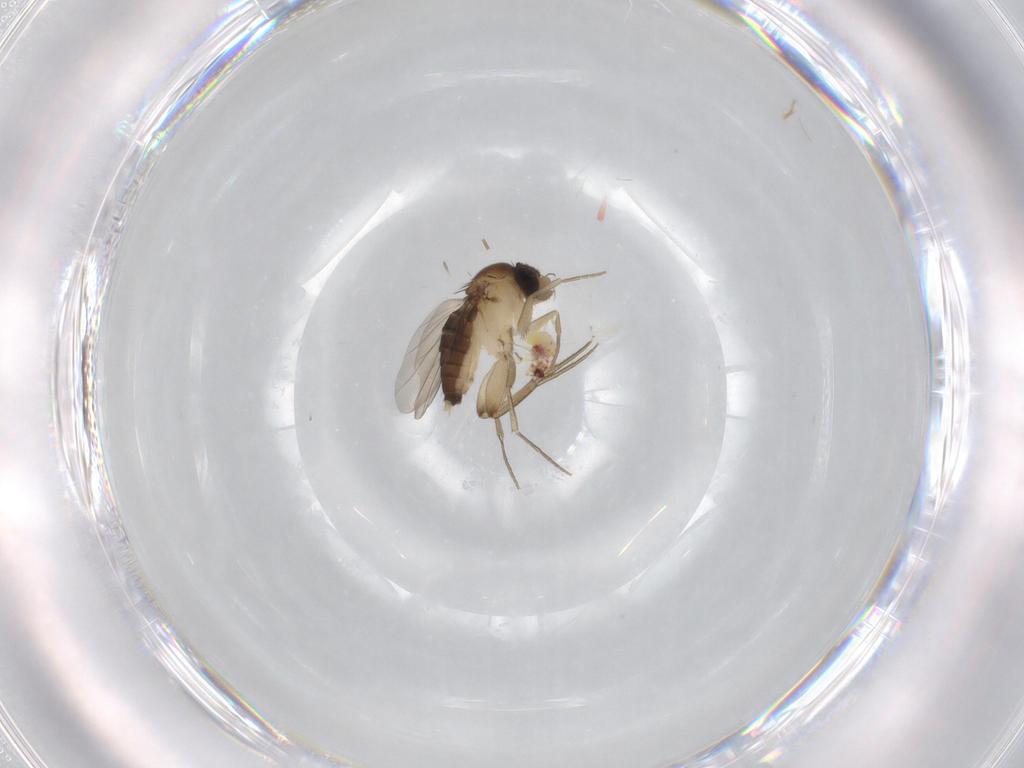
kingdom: Animalia
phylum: Arthropoda
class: Insecta
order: Diptera
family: Phoridae
